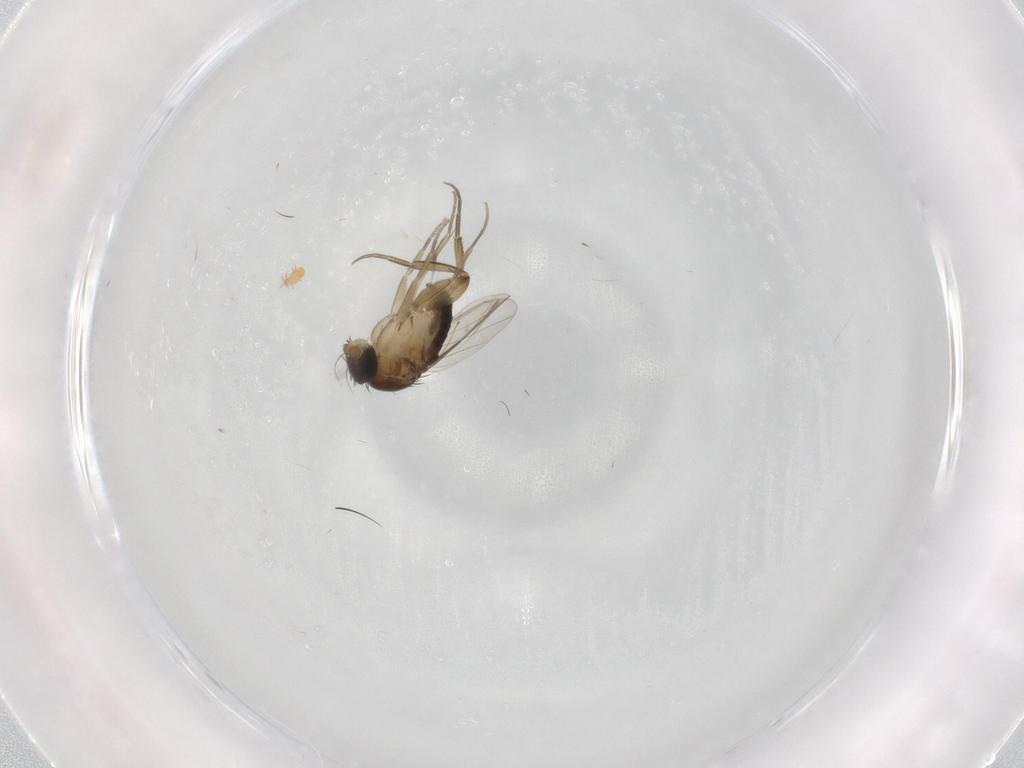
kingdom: Animalia
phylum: Arthropoda
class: Insecta
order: Diptera
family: Phoridae
